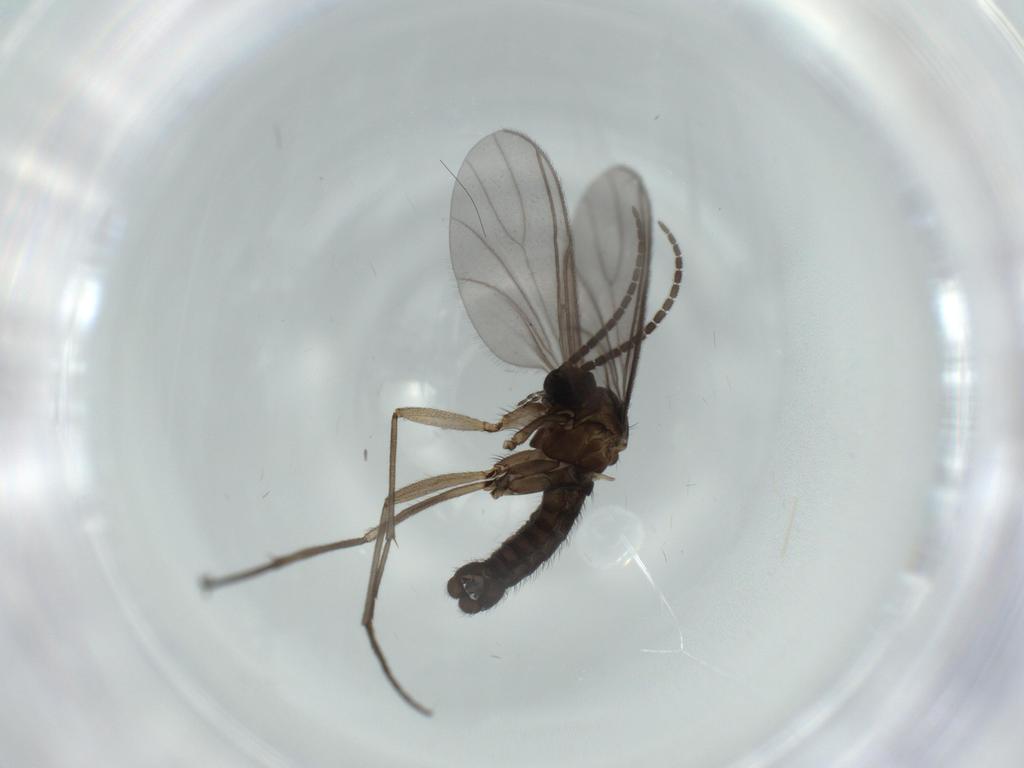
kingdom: Animalia
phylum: Arthropoda
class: Insecta
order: Diptera
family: Sciaridae
